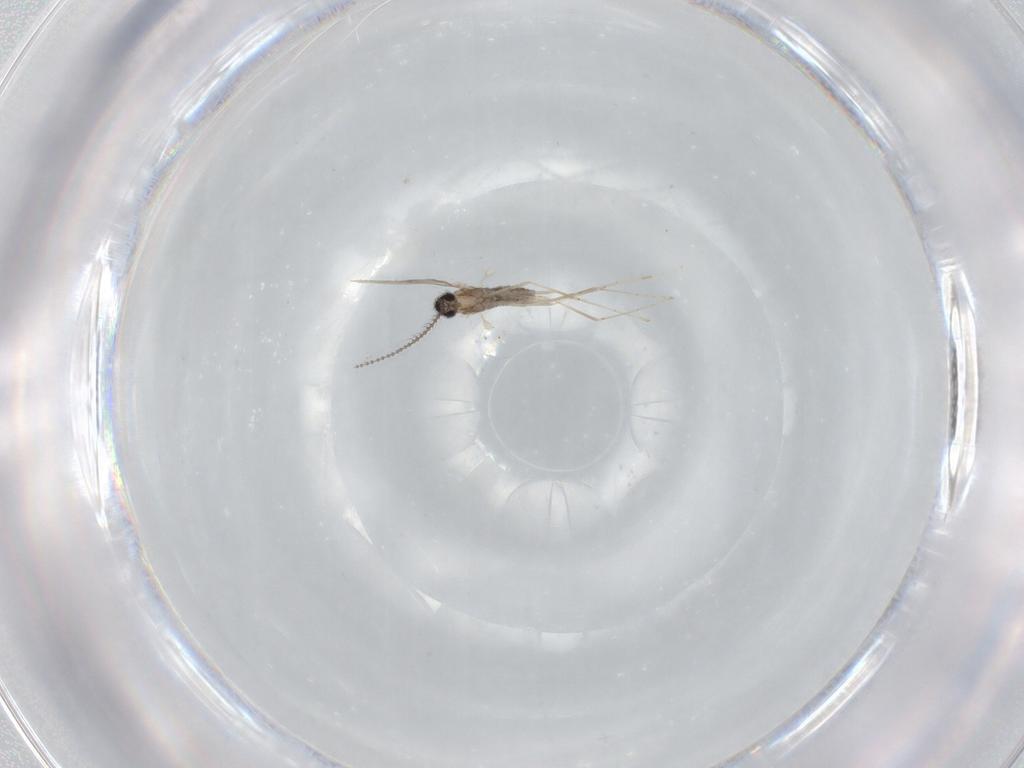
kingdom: Animalia
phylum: Arthropoda
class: Insecta
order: Diptera
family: Cecidomyiidae
